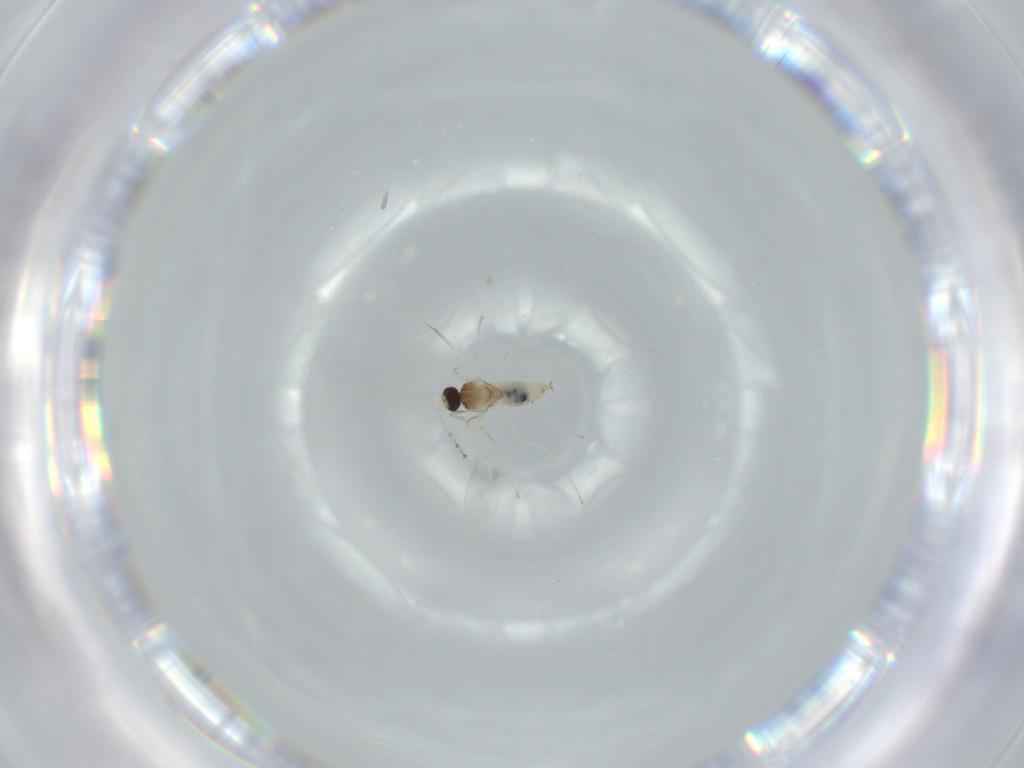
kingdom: Animalia
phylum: Arthropoda
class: Insecta
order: Diptera
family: Cecidomyiidae
